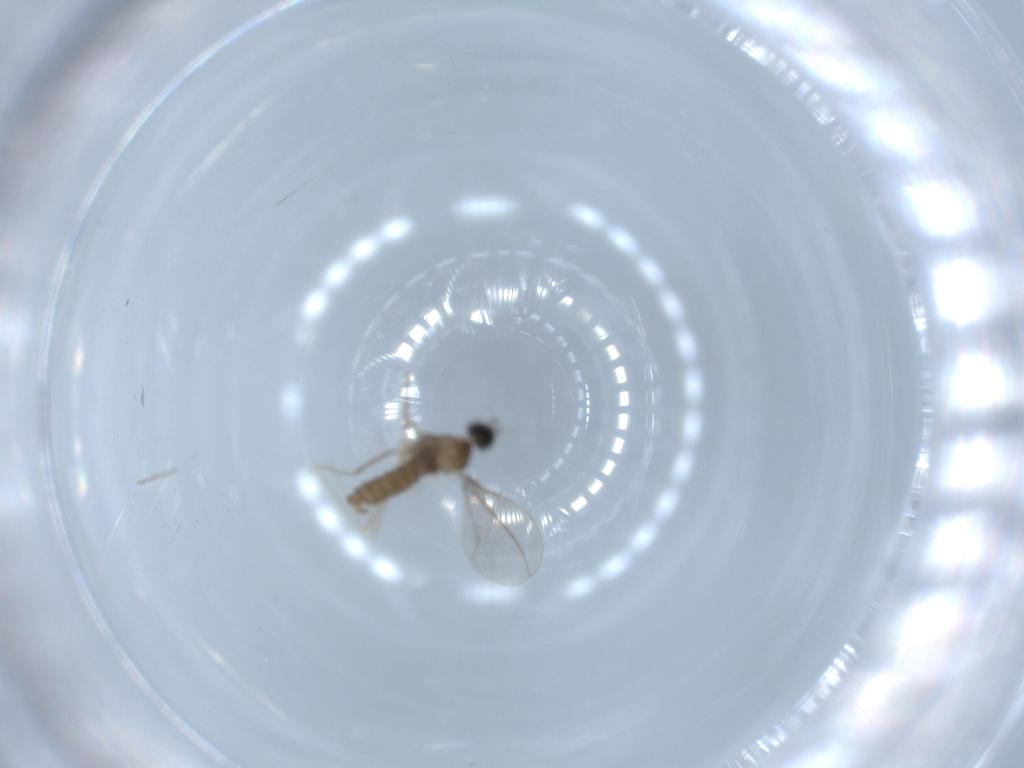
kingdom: Animalia
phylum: Arthropoda
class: Insecta
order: Diptera
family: Cecidomyiidae
